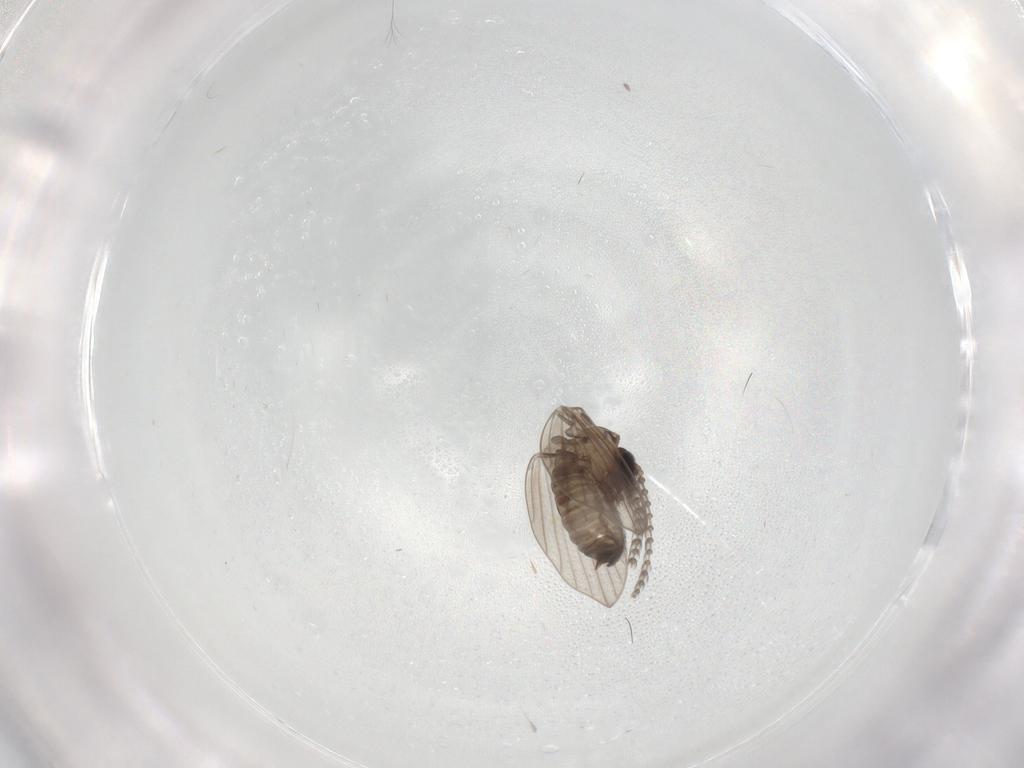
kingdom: Animalia
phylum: Arthropoda
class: Insecta
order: Diptera
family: Psychodidae
